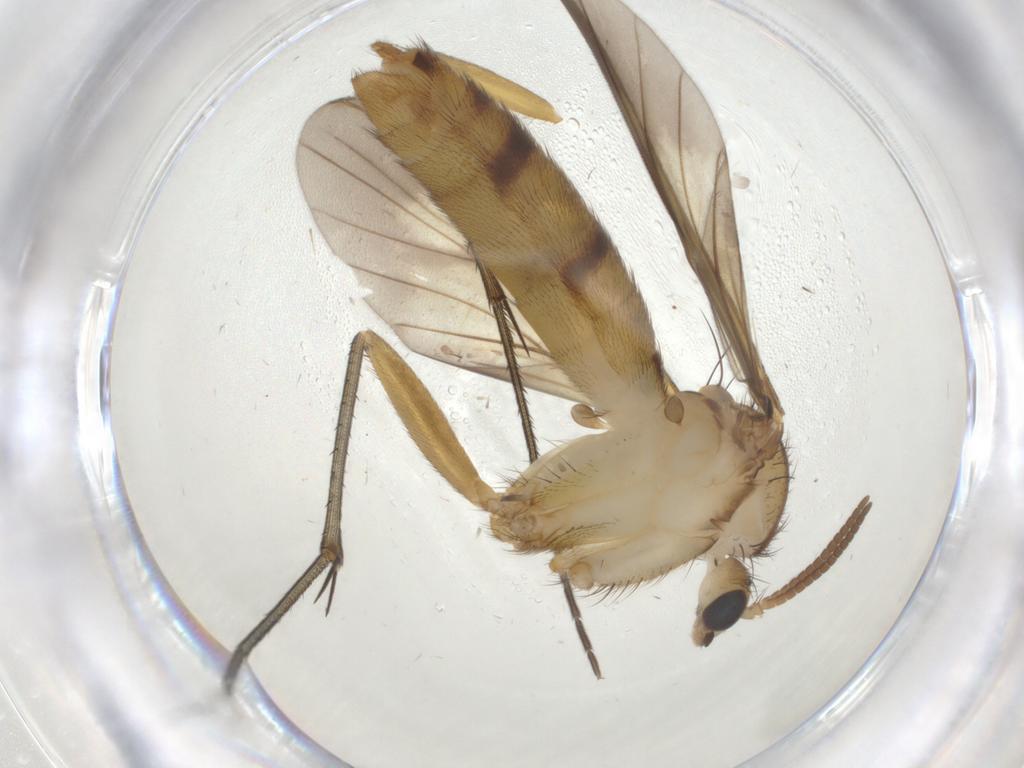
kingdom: Animalia
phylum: Arthropoda
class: Insecta
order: Diptera
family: Limoniidae
